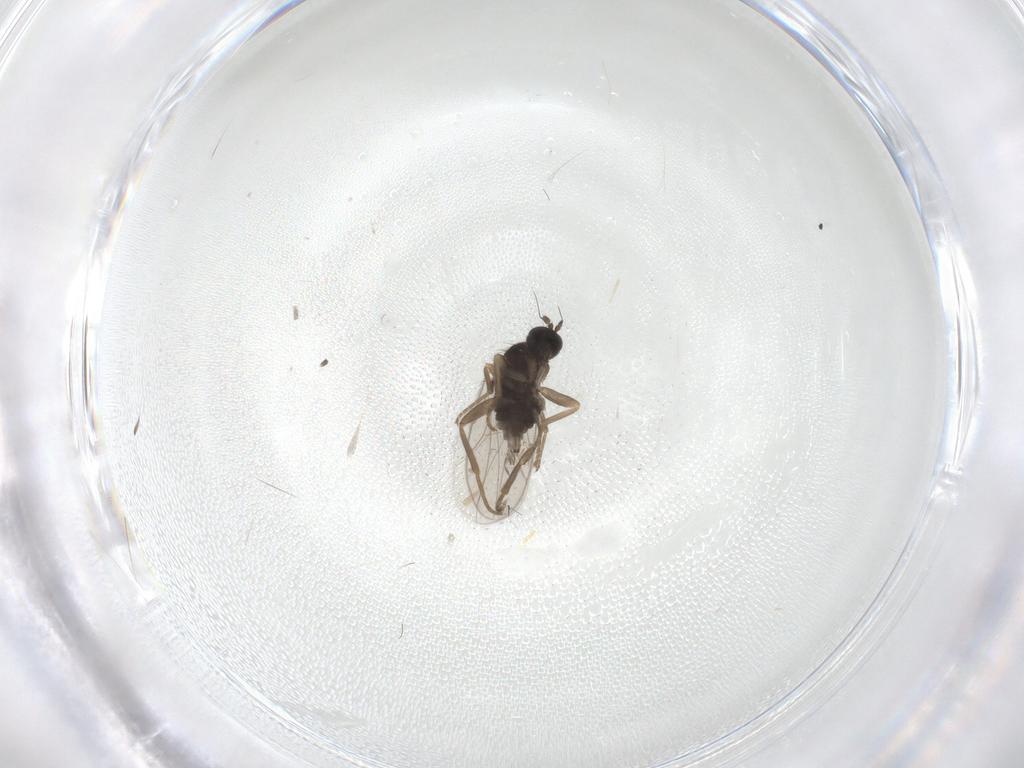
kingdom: Animalia
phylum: Arthropoda
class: Insecta
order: Diptera
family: Hybotidae
